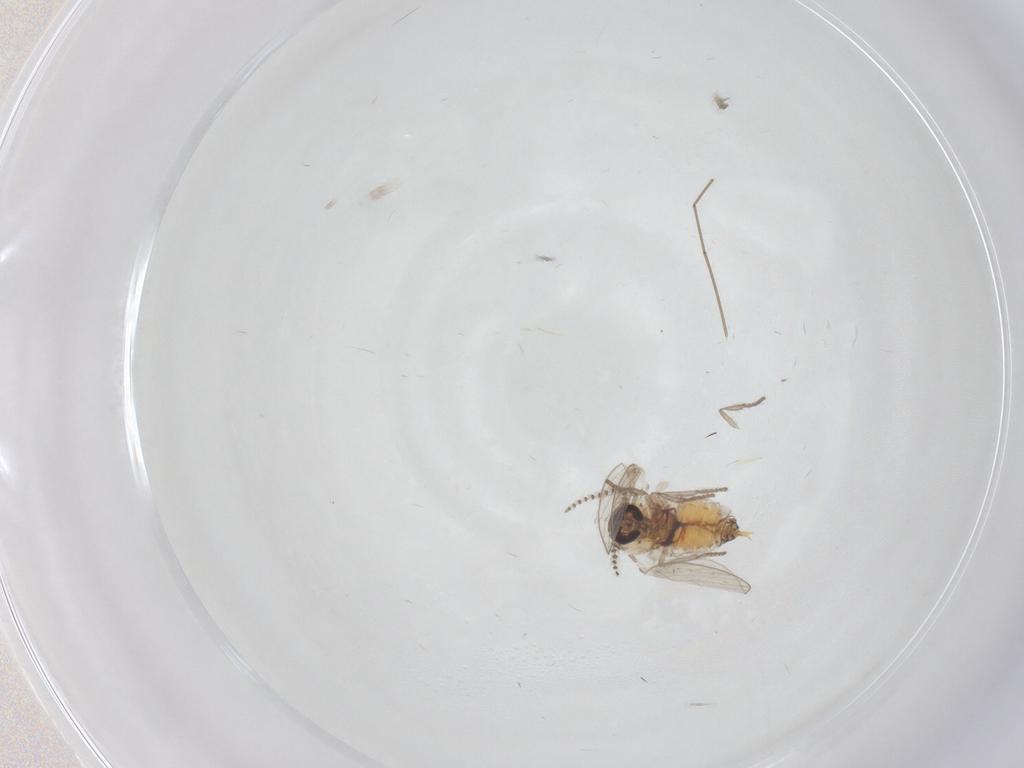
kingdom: Animalia
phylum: Arthropoda
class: Insecta
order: Diptera
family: Psychodidae
